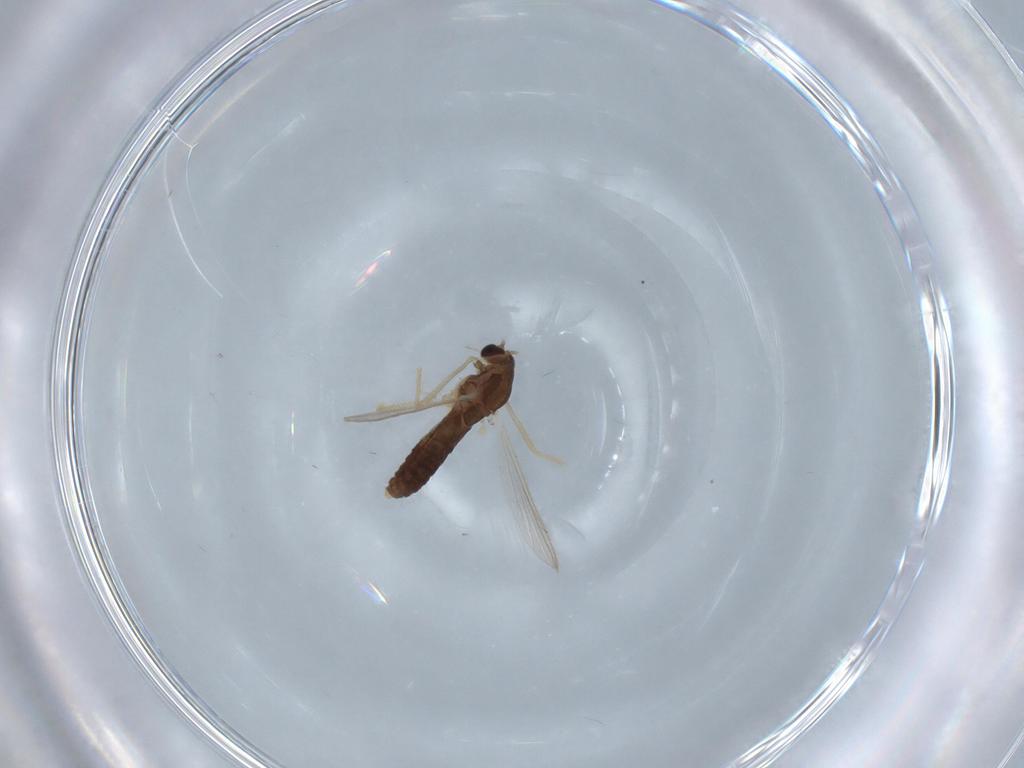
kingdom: Animalia
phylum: Arthropoda
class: Insecta
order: Diptera
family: Chironomidae
